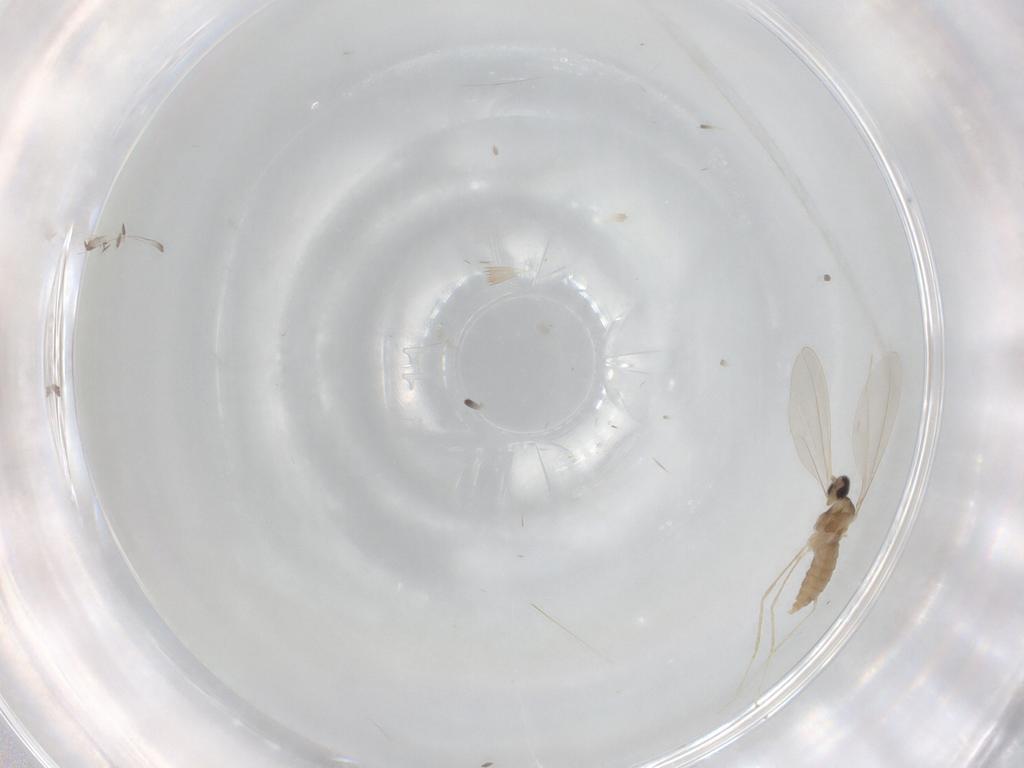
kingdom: Animalia
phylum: Arthropoda
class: Insecta
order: Diptera
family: Cecidomyiidae
